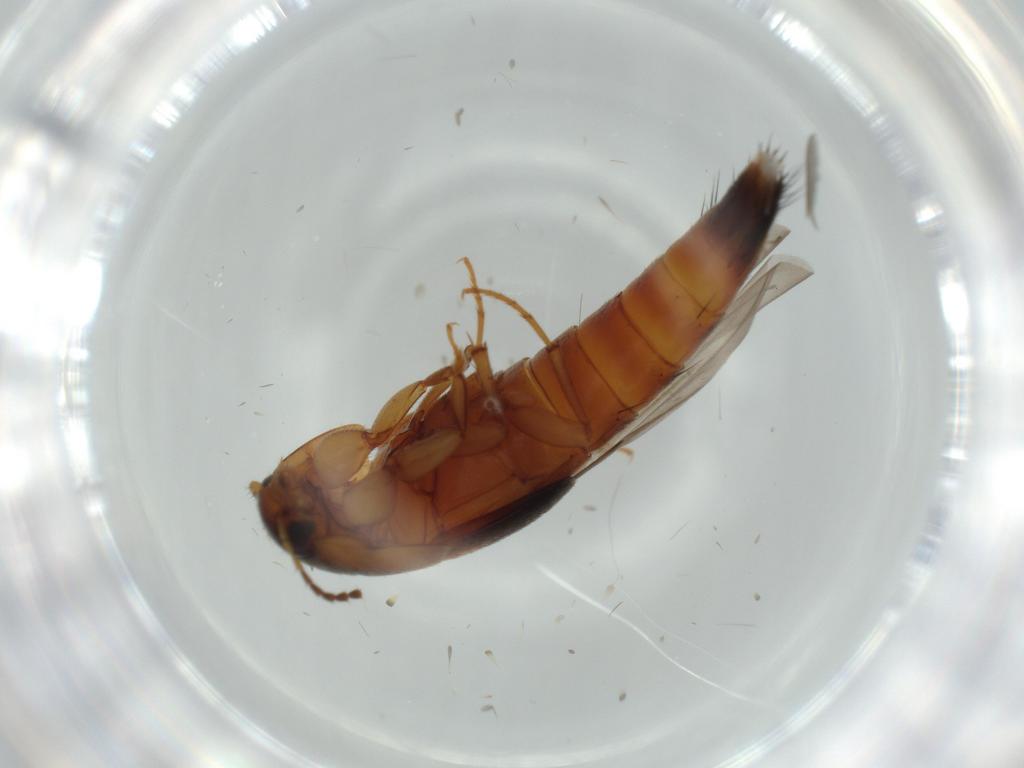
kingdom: Animalia
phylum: Arthropoda
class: Insecta
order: Coleoptera
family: Staphylinidae
